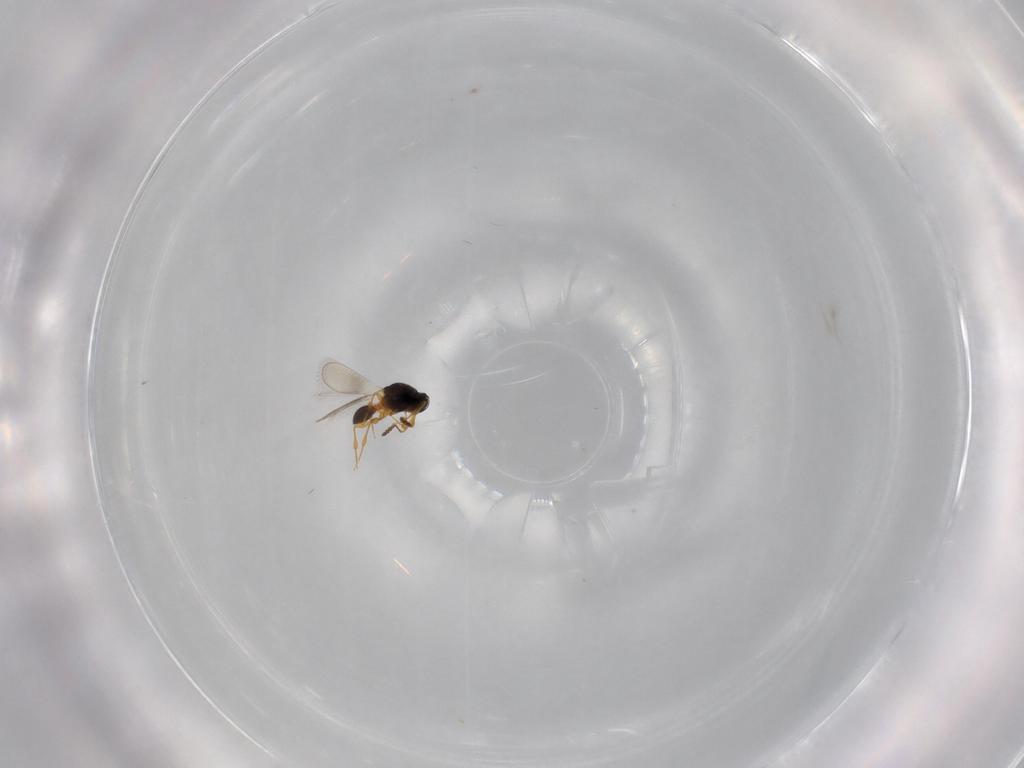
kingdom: Animalia
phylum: Arthropoda
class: Insecta
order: Hymenoptera
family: Platygastridae
